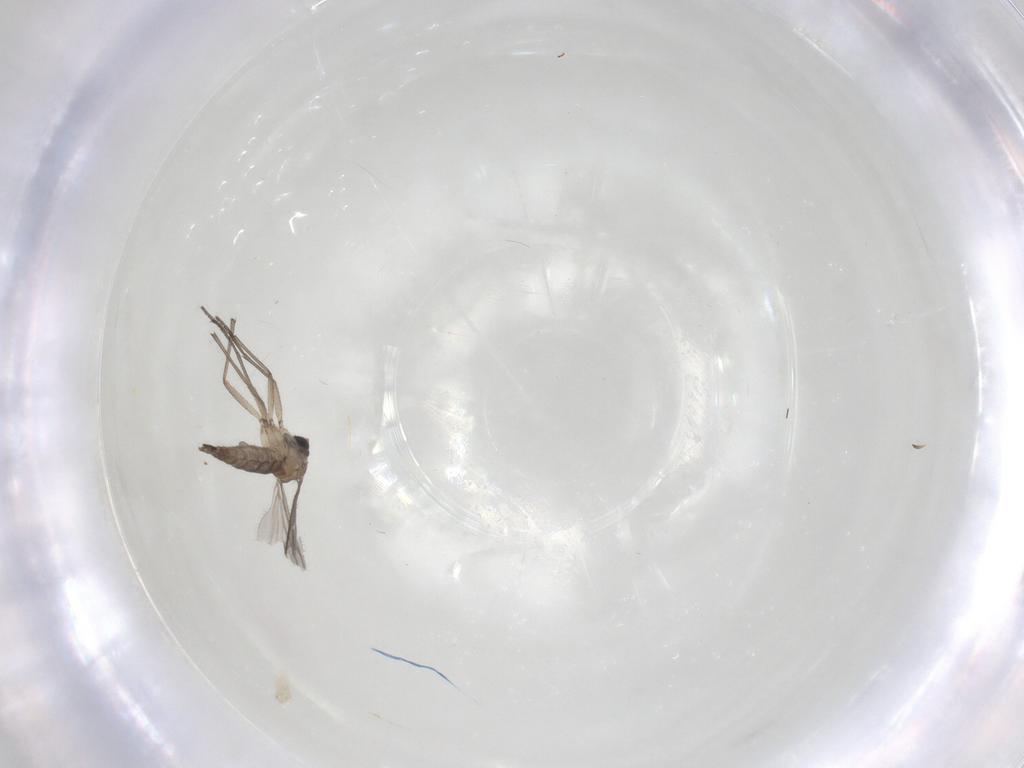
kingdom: Animalia
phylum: Arthropoda
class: Insecta
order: Diptera
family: Sciaridae
